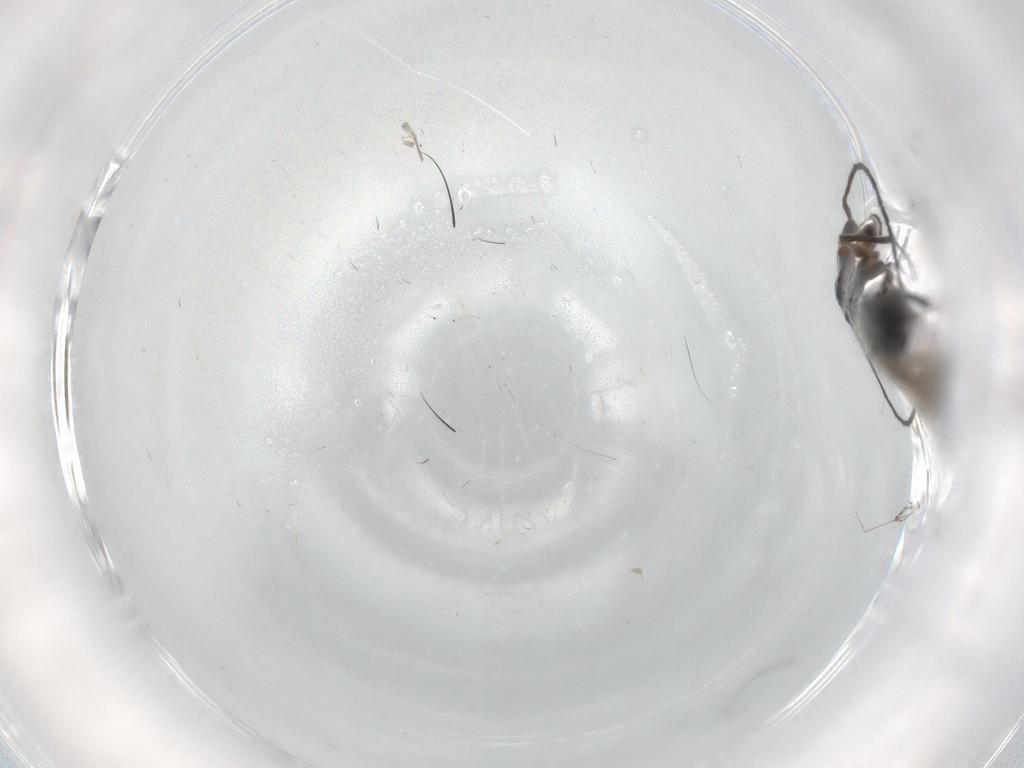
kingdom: Animalia
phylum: Arthropoda
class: Insecta
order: Hymenoptera
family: Diapriidae
